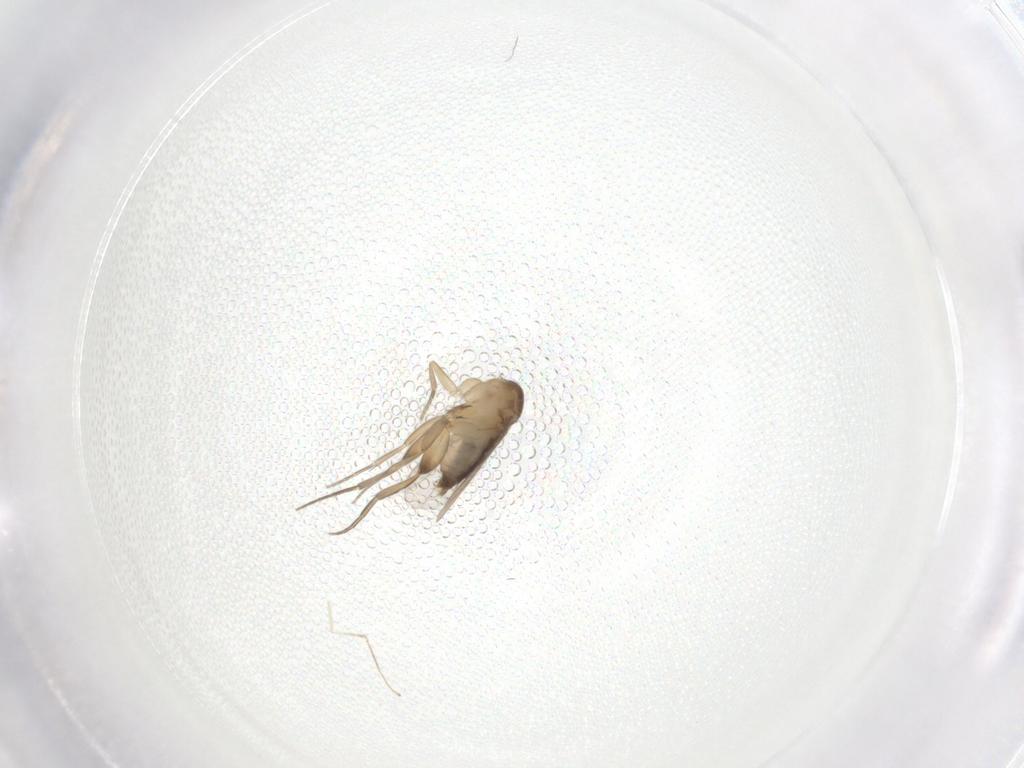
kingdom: Animalia
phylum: Arthropoda
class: Insecta
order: Diptera
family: Phoridae
